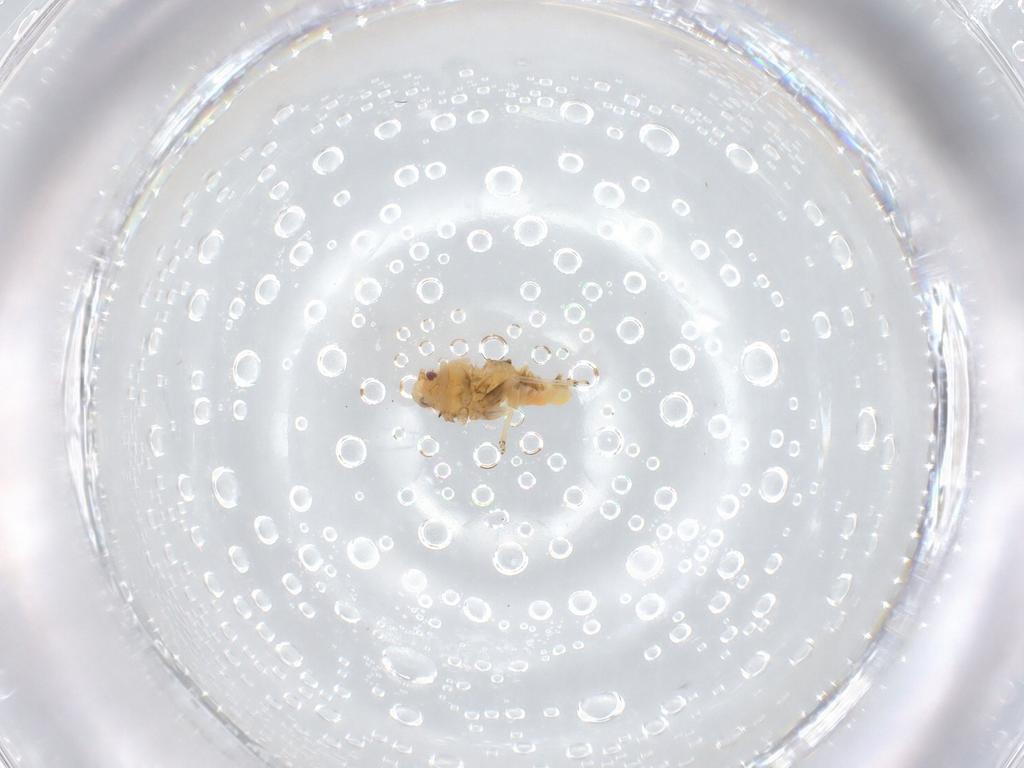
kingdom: Animalia
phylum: Arthropoda
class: Insecta
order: Hemiptera
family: Psyllidae
